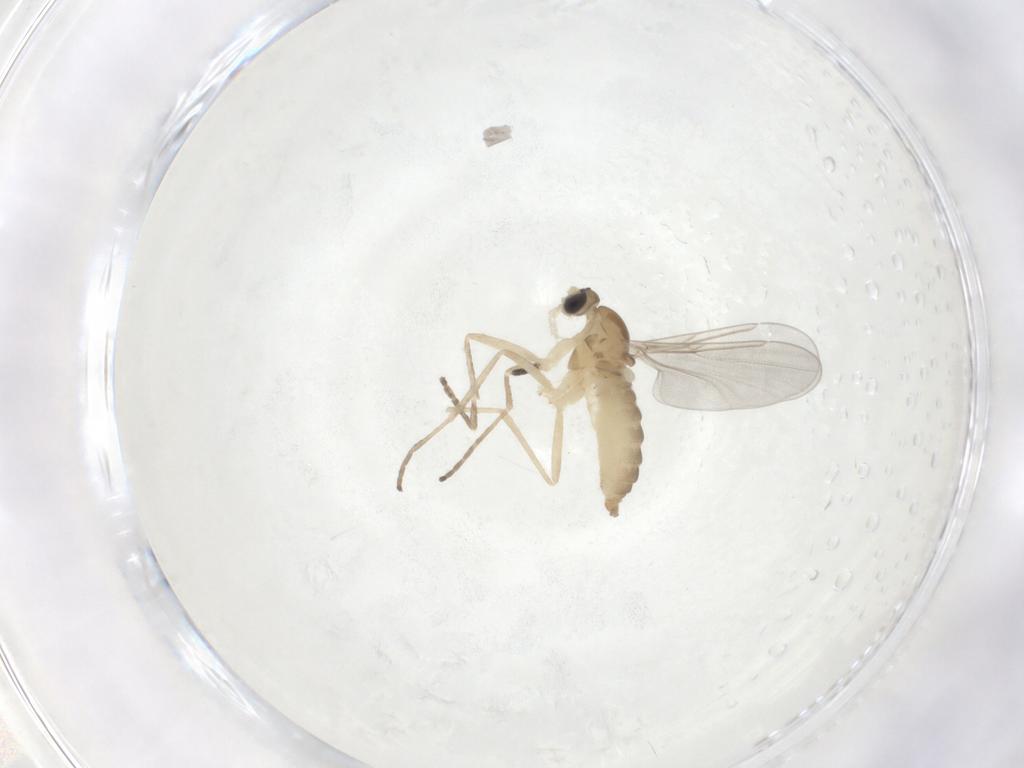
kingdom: Animalia
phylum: Arthropoda
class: Insecta
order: Diptera
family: Cecidomyiidae
